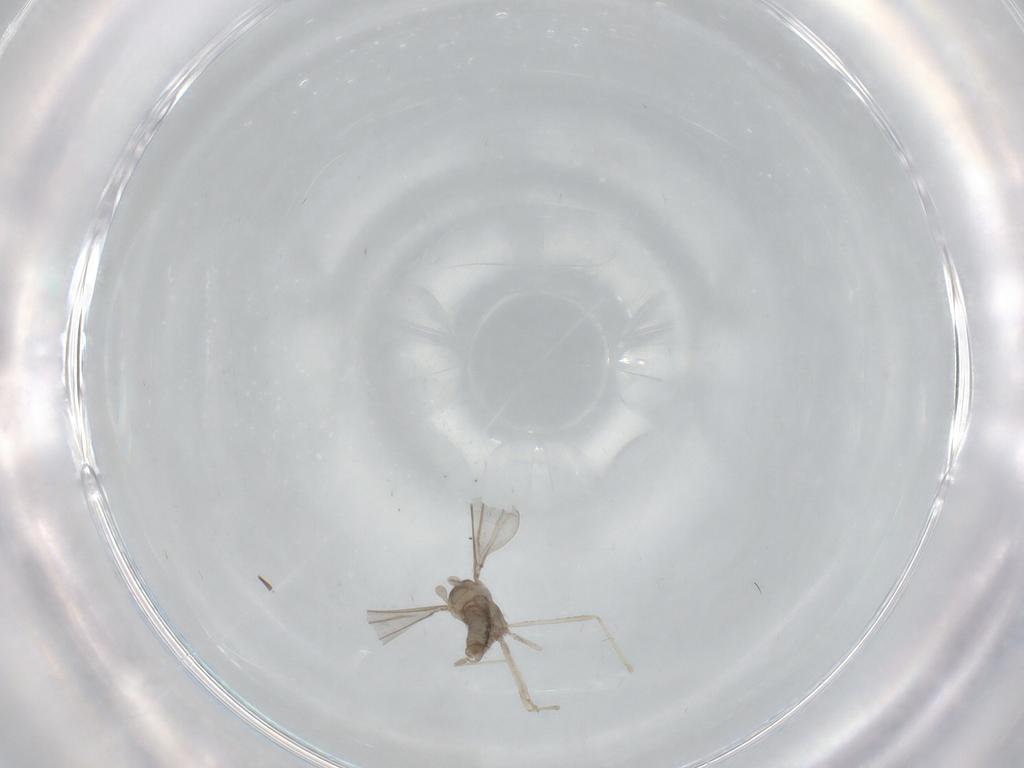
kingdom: Animalia
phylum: Arthropoda
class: Insecta
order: Diptera
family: Cecidomyiidae
